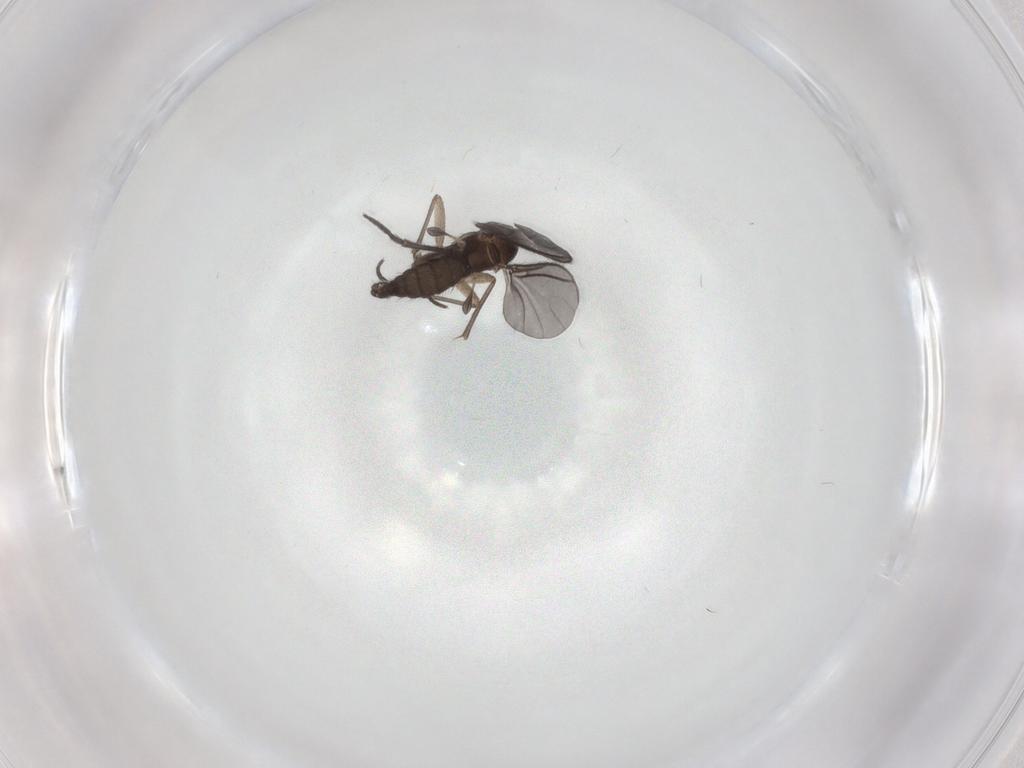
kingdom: Animalia
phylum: Arthropoda
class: Insecta
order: Diptera
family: Sciaridae
